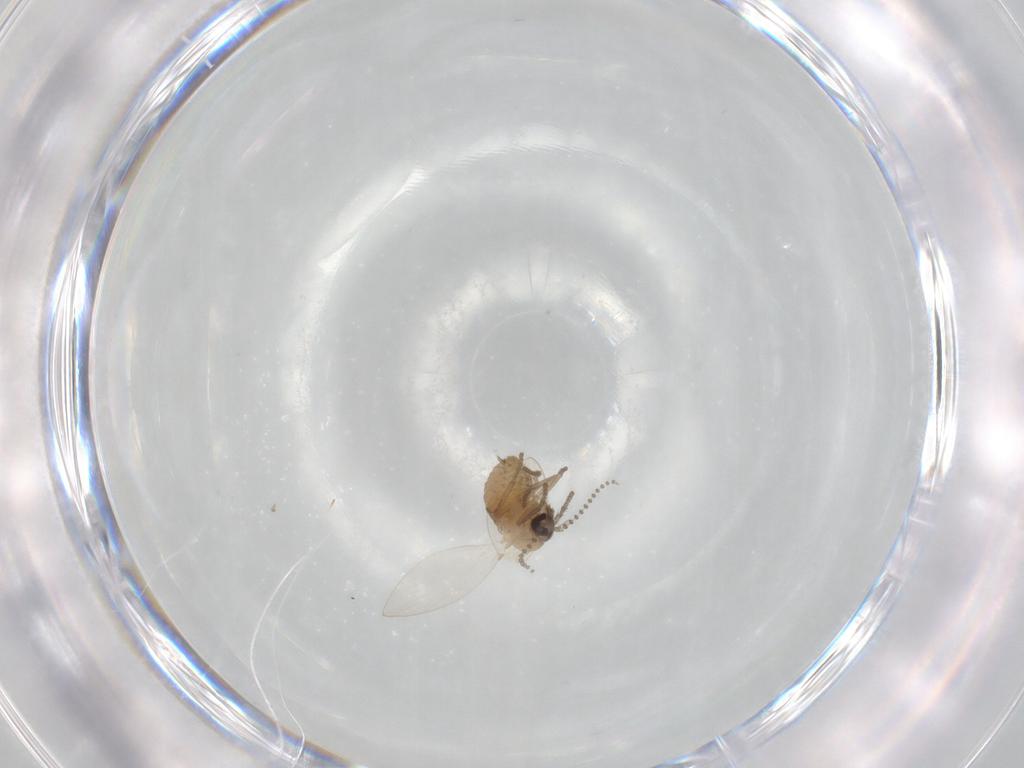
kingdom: Animalia
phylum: Arthropoda
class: Insecta
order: Diptera
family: Psychodidae
